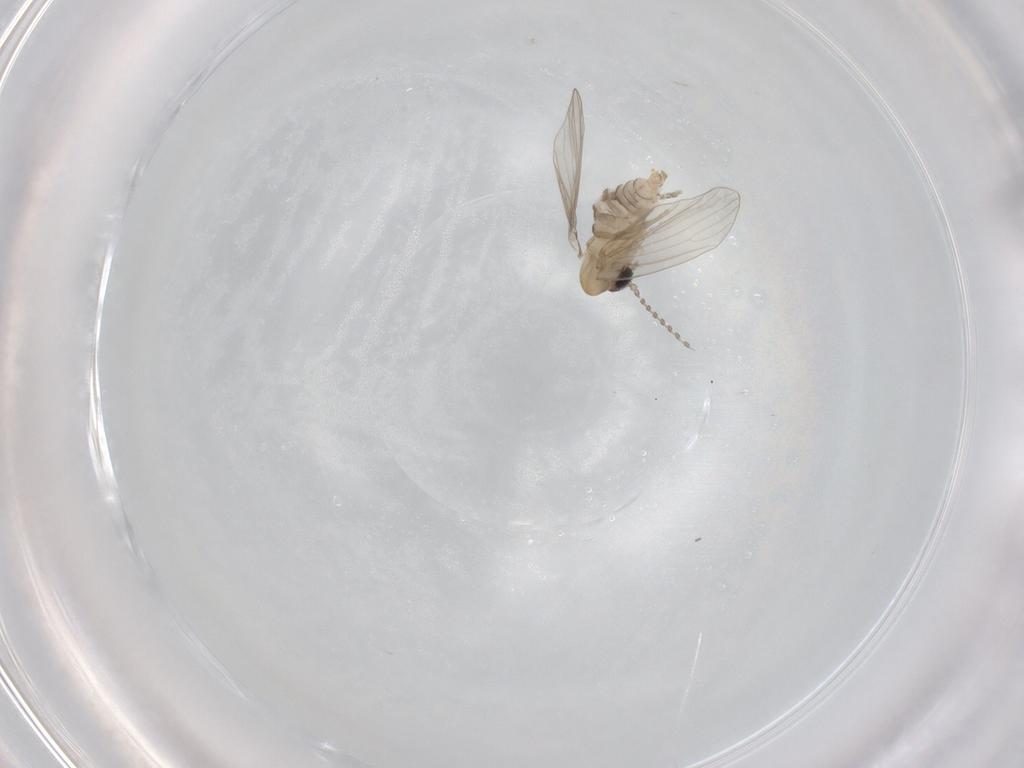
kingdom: Animalia
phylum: Arthropoda
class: Insecta
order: Diptera
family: Psychodidae
